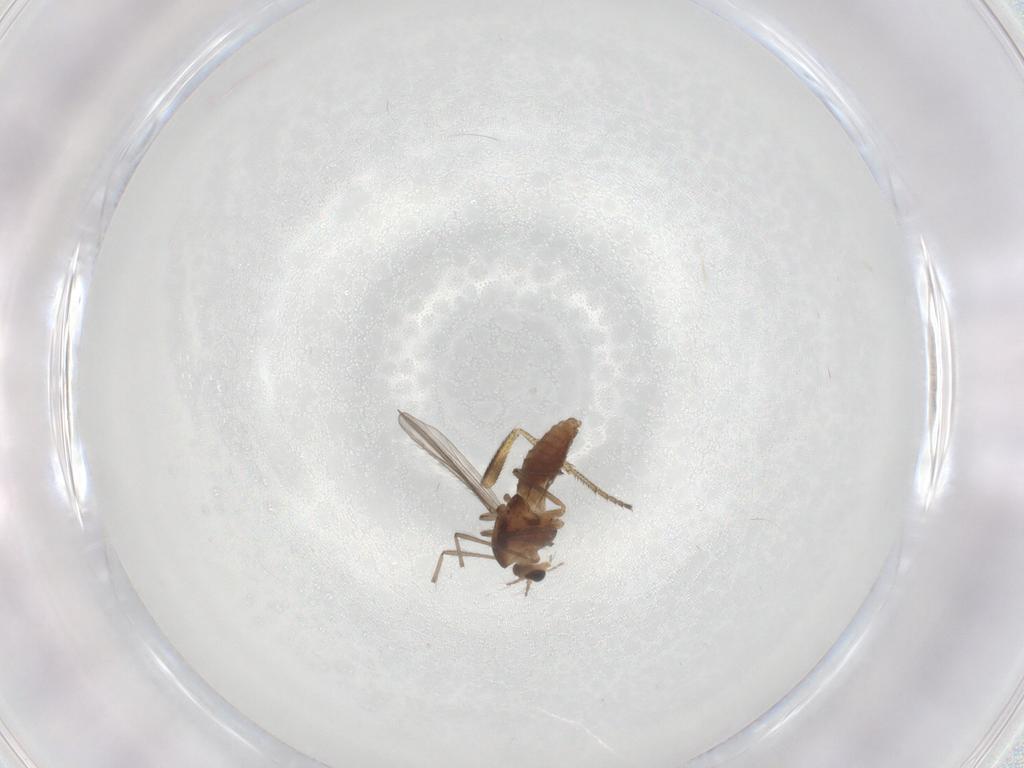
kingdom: Animalia
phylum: Arthropoda
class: Insecta
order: Diptera
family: Chironomidae
